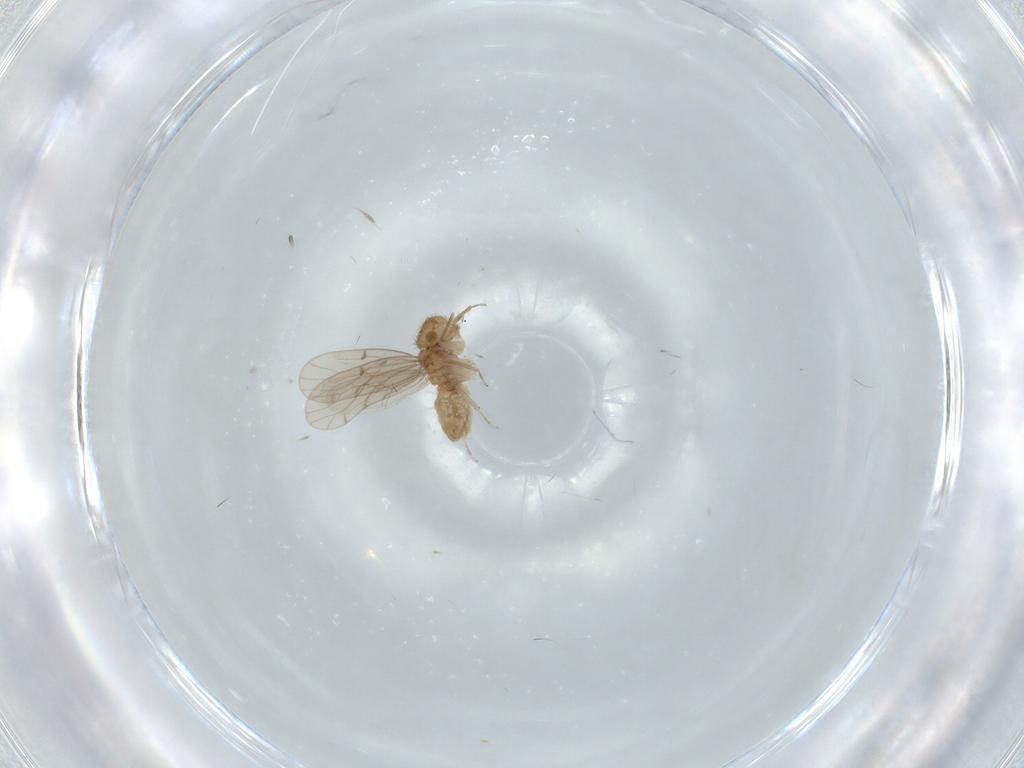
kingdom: Animalia
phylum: Arthropoda
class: Insecta
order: Psocodea
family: Ectopsocidae
